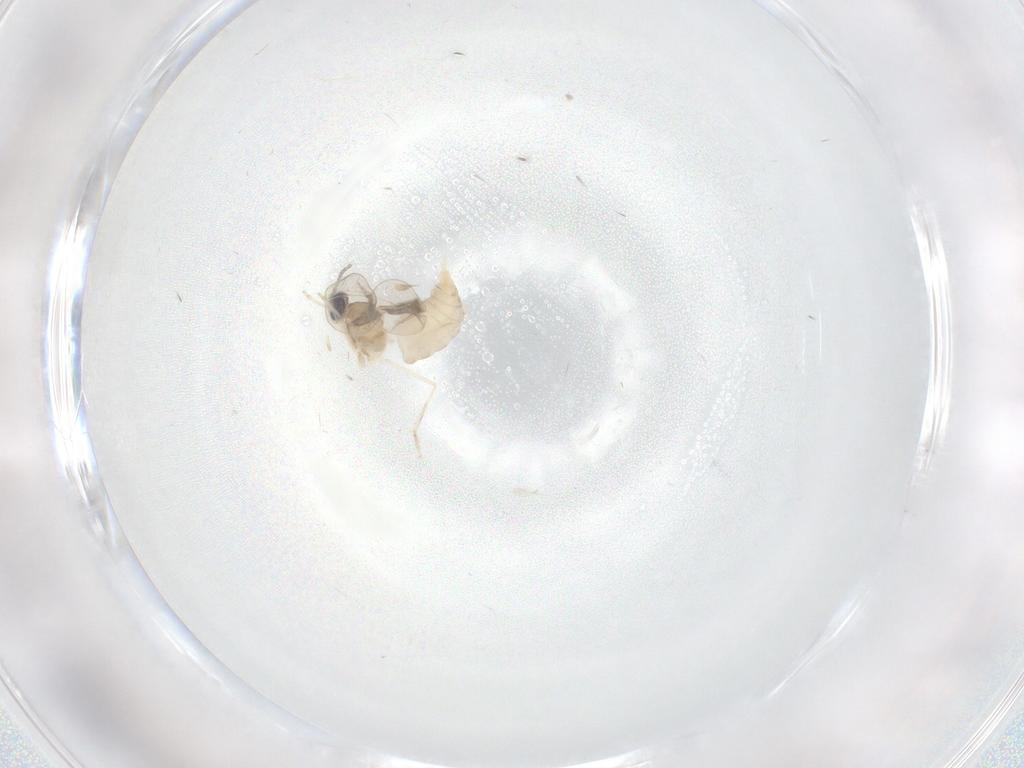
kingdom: Animalia
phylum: Arthropoda
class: Insecta
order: Diptera
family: Cecidomyiidae
